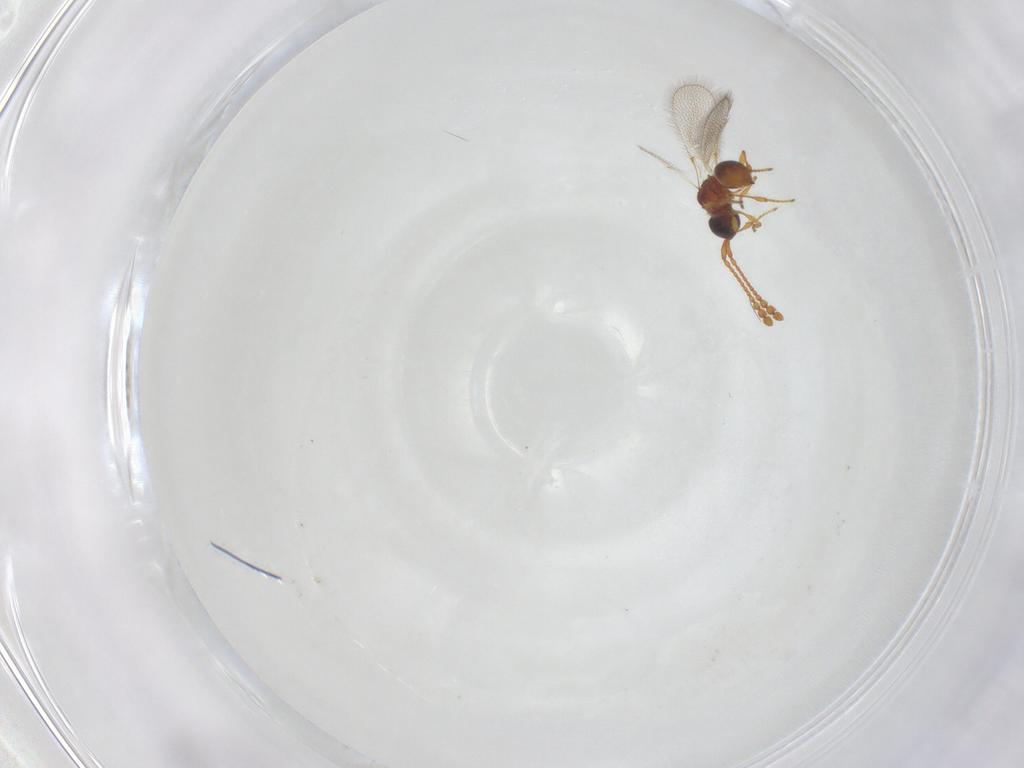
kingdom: Animalia
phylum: Arthropoda
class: Insecta
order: Hymenoptera
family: Diapriidae
